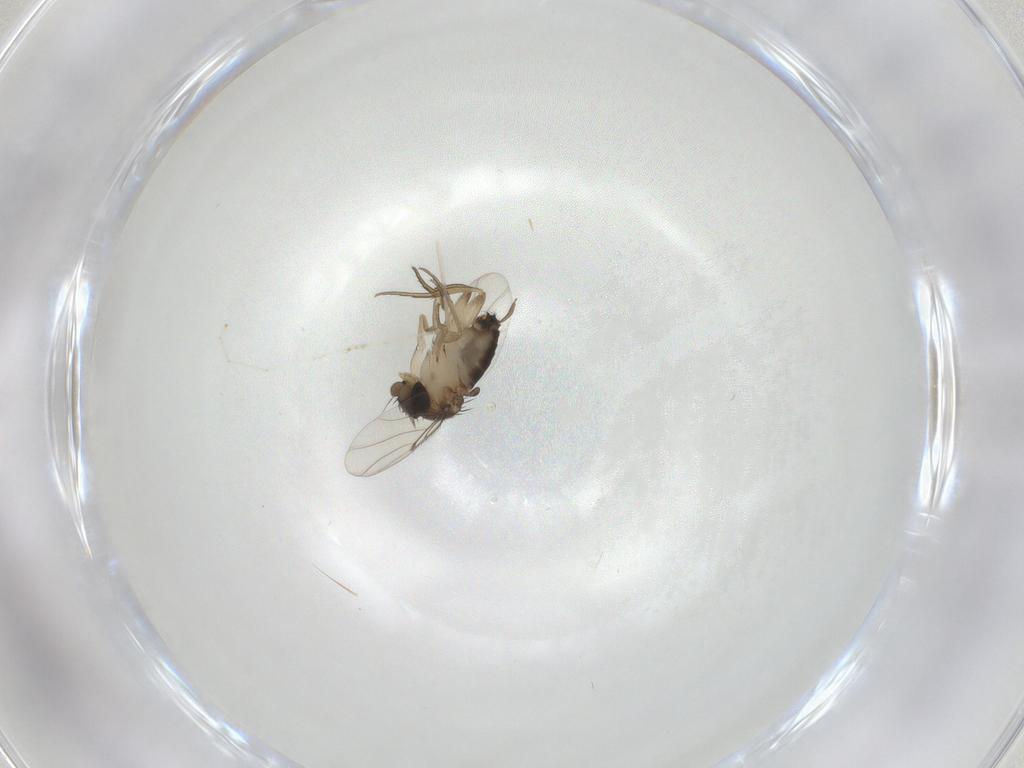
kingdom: Animalia
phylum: Arthropoda
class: Insecta
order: Diptera
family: Cecidomyiidae
